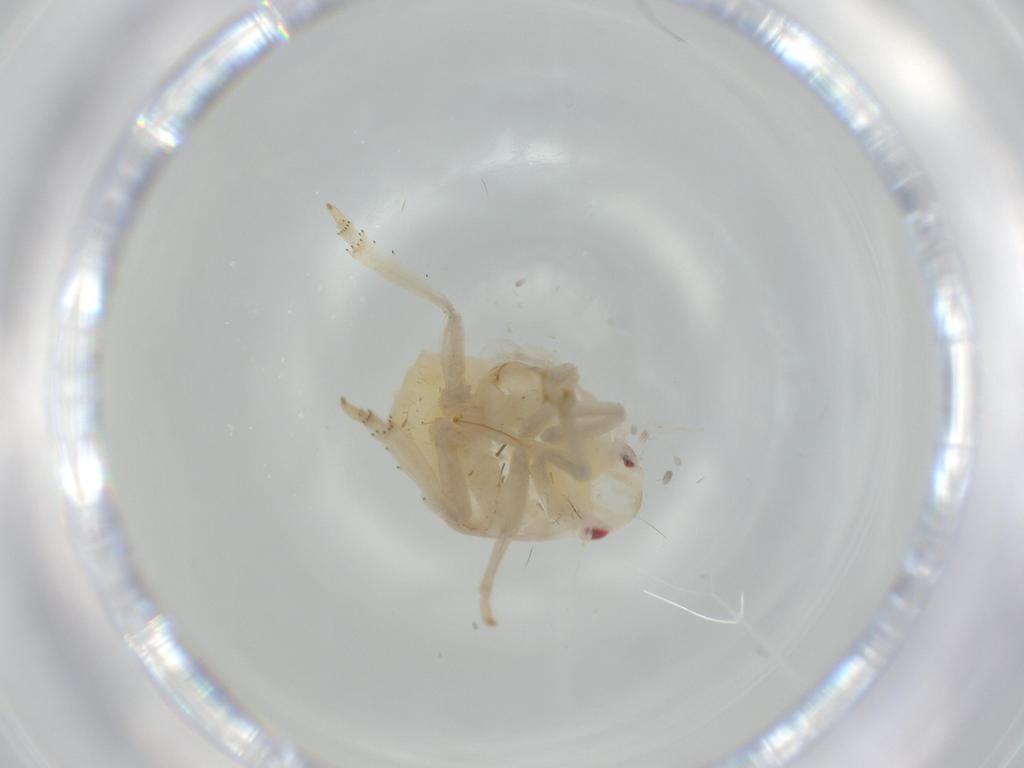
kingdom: Animalia
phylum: Arthropoda
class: Insecta
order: Hemiptera
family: Flatidae
